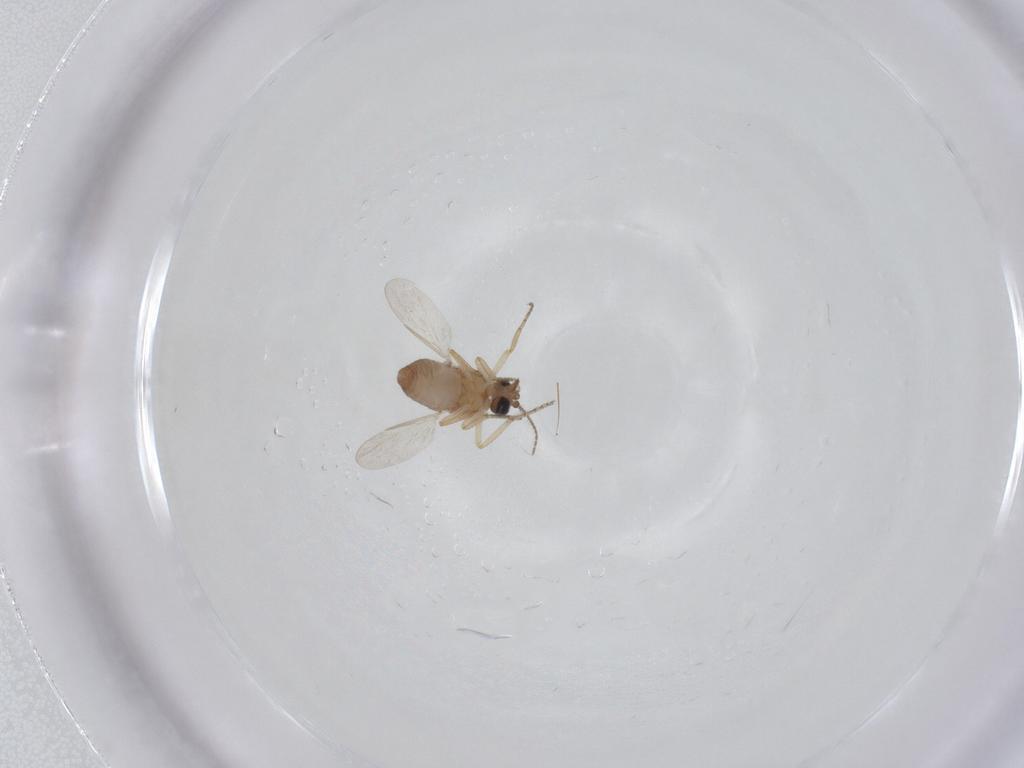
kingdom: Animalia
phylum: Arthropoda
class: Insecta
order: Diptera
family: Ceratopogonidae
